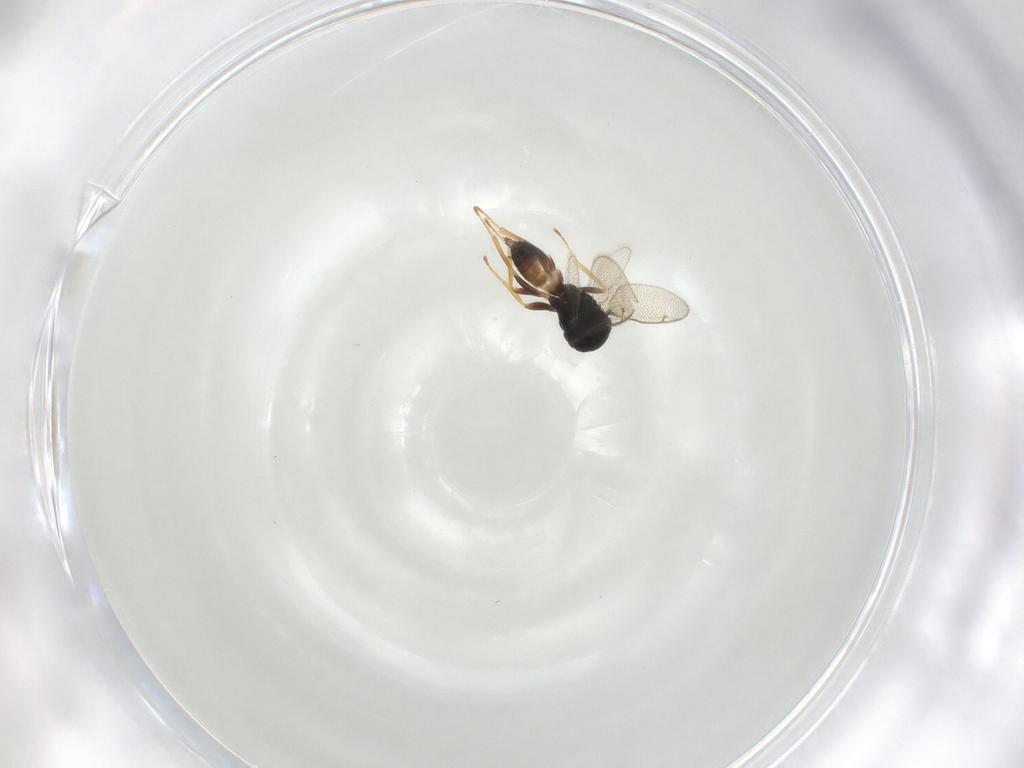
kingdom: Animalia
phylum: Arthropoda
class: Insecta
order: Hymenoptera
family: Pteromalidae
